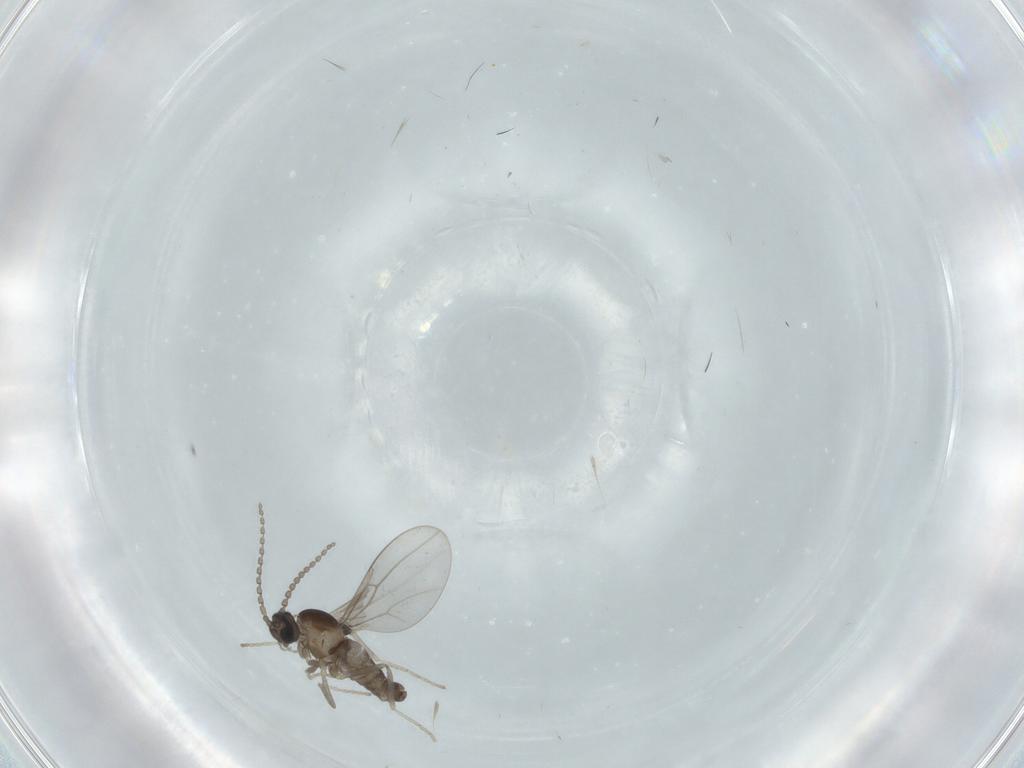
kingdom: Animalia
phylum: Arthropoda
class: Insecta
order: Diptera
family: Cecidomyiidae
